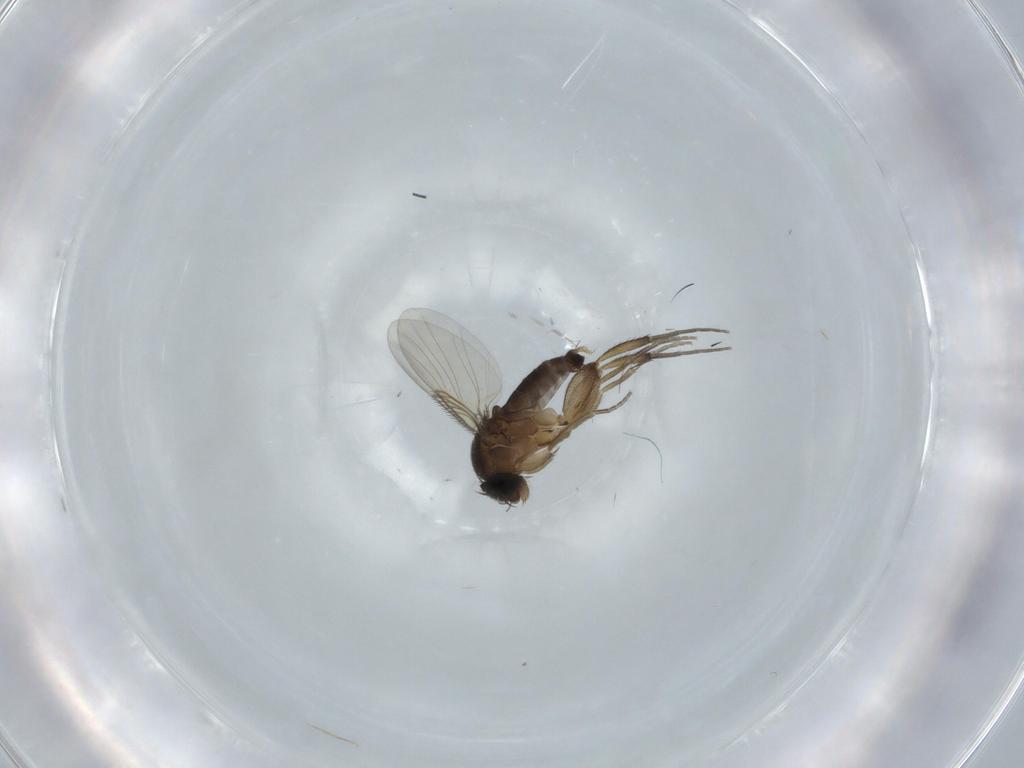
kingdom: Animalia
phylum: Arthropoda
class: Insecta
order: Diptera
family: Phoridae
